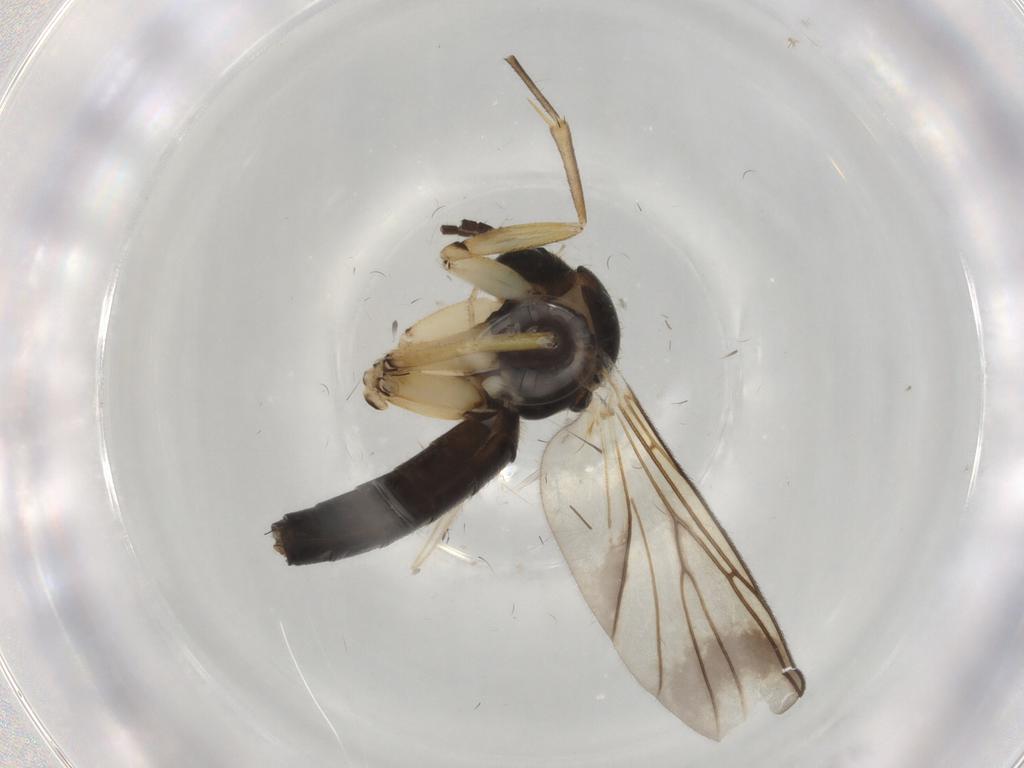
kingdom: Animalia
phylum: Arthropoda
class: Insecta
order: Diptera
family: Mycetophilidae
